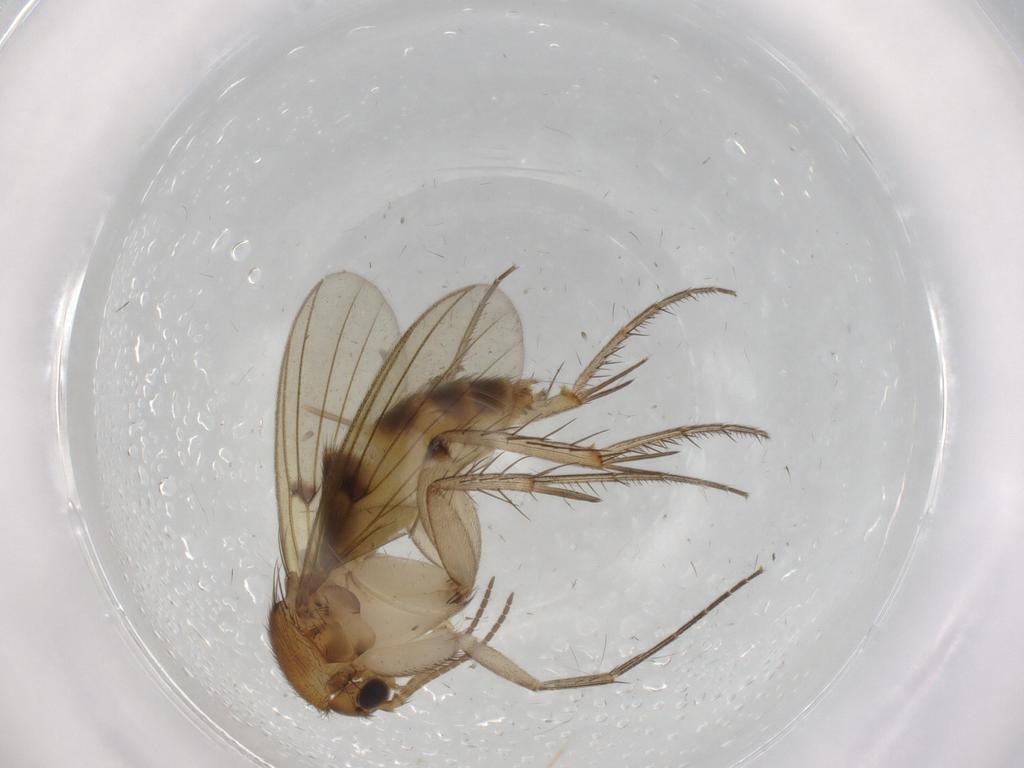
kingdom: Animalia
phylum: Arthropoda
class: Insecta
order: Diptera
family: Mycetophilidae
